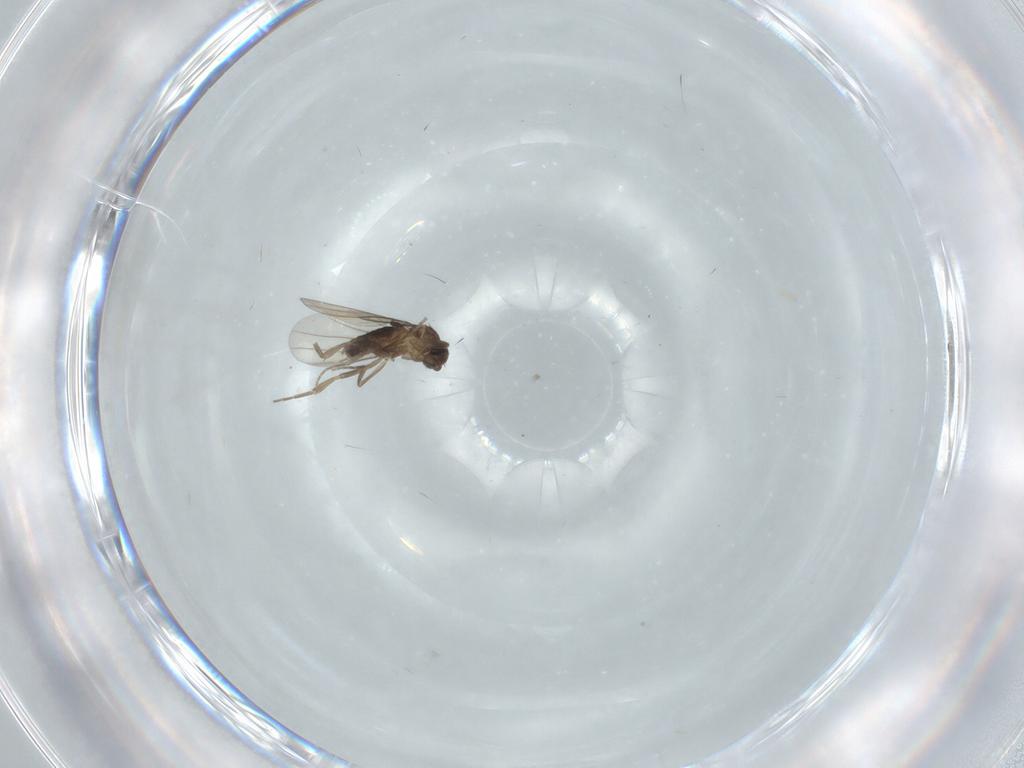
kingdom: Animalia
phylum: Arthropoda
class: Insecta
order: Diptera
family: Phoridae
